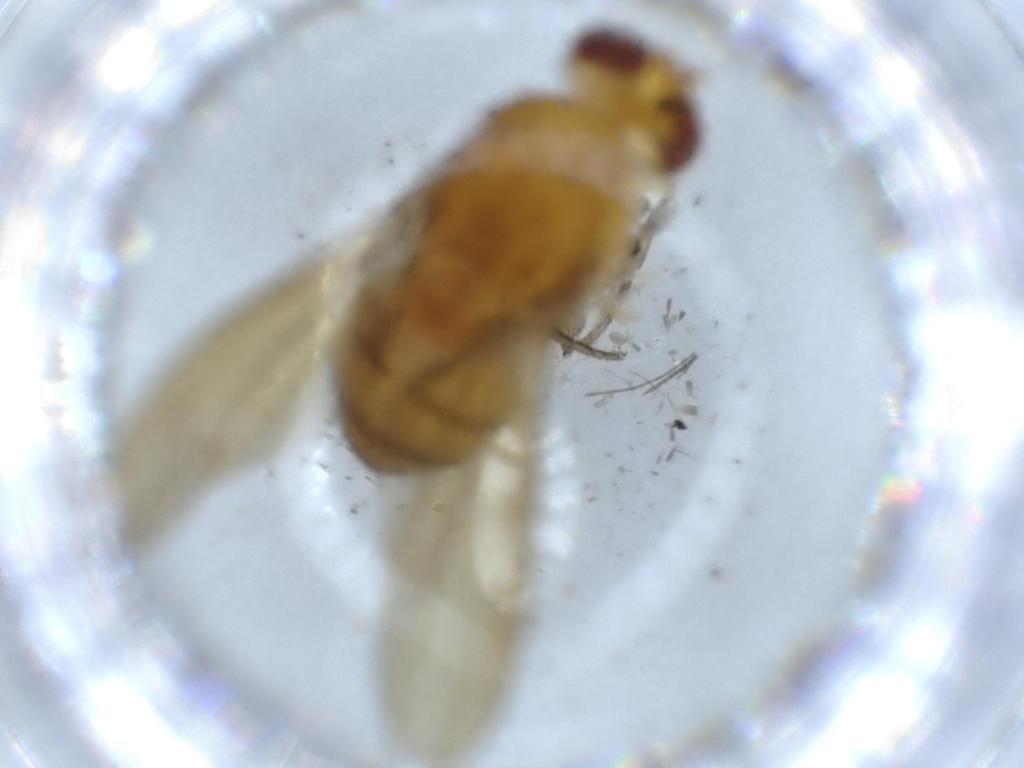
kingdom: Animalia
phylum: Arthropoda
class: Insecta
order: Diptera
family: Ceratopogonidae
